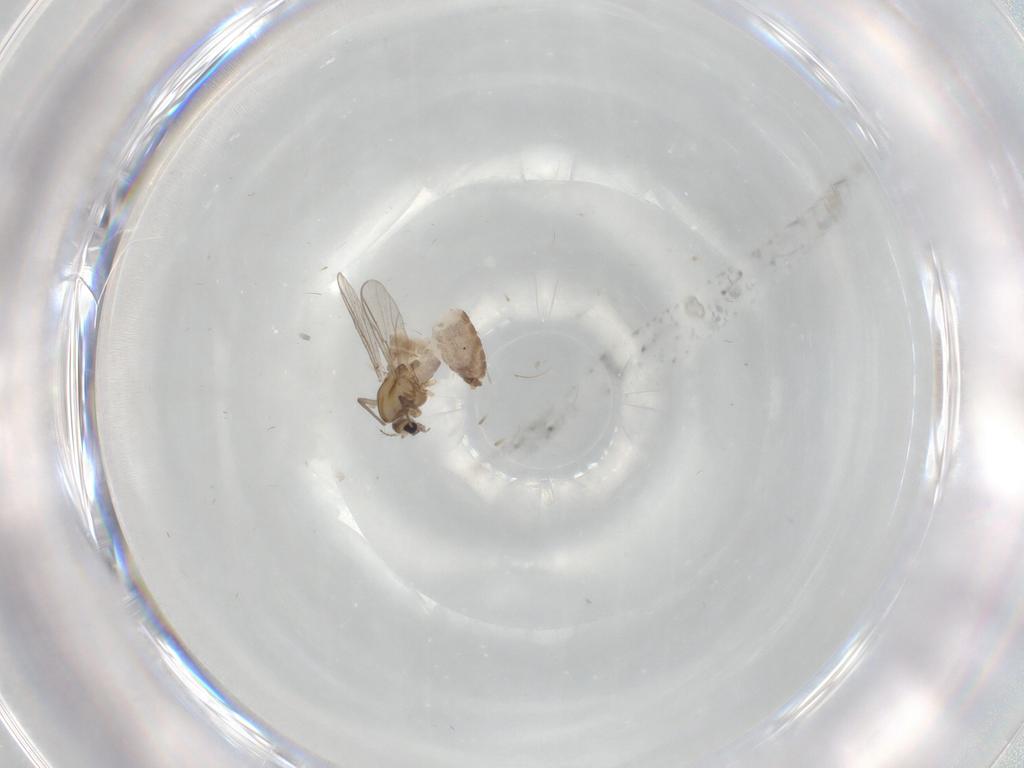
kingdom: Animalia
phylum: Arthropoda
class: Insecta
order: Diptera
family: Chironomidae
